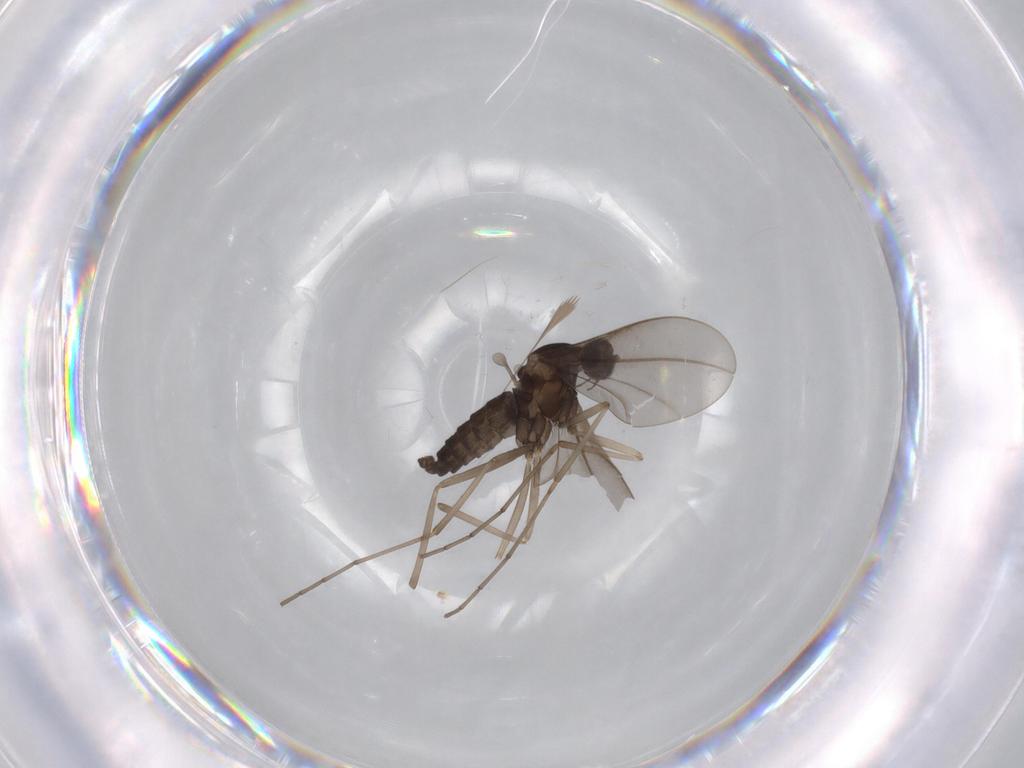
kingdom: Animalia
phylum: Arthropoda
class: Insecta
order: Diptera
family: Cecidomyiidae
